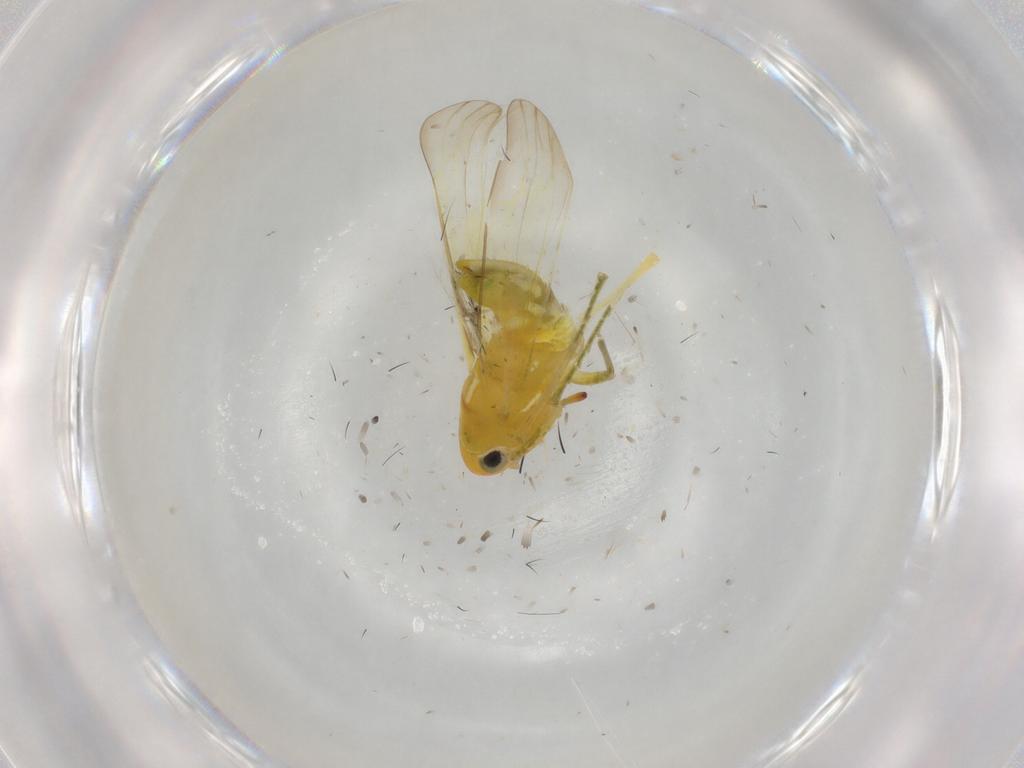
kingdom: Animalia
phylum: Arthropoda
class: Insecta
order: Hemiptera
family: Cicadellidae
